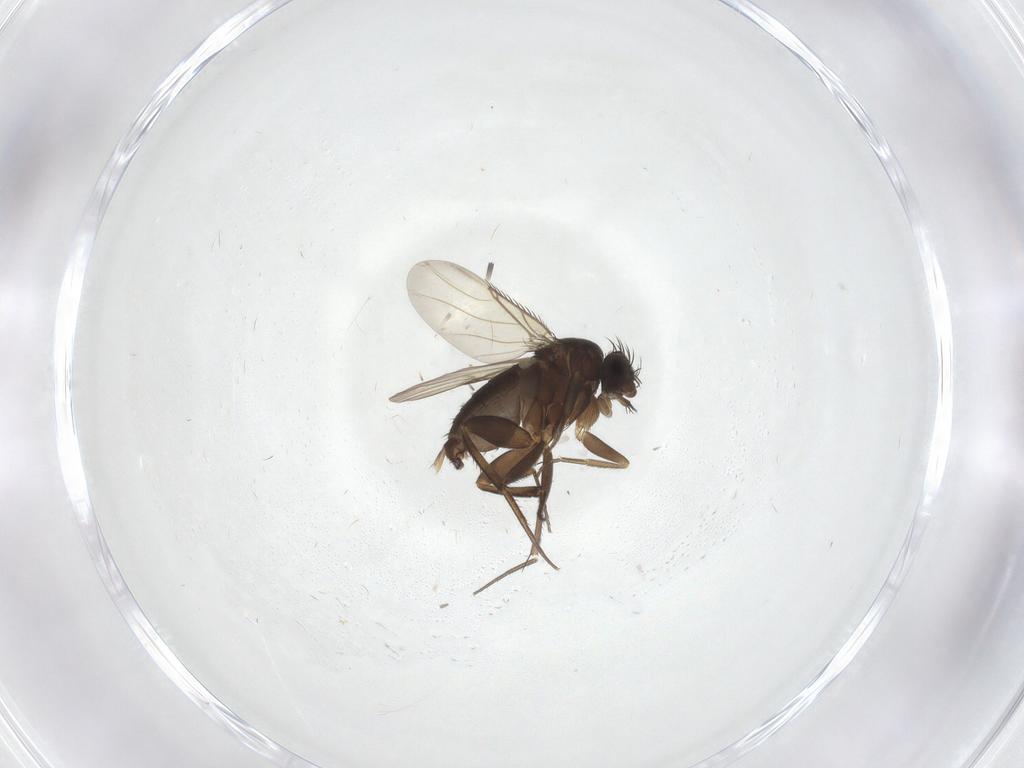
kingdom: Animalia
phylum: Arthropoda
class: Insecta
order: Diptera
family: Phoridae
